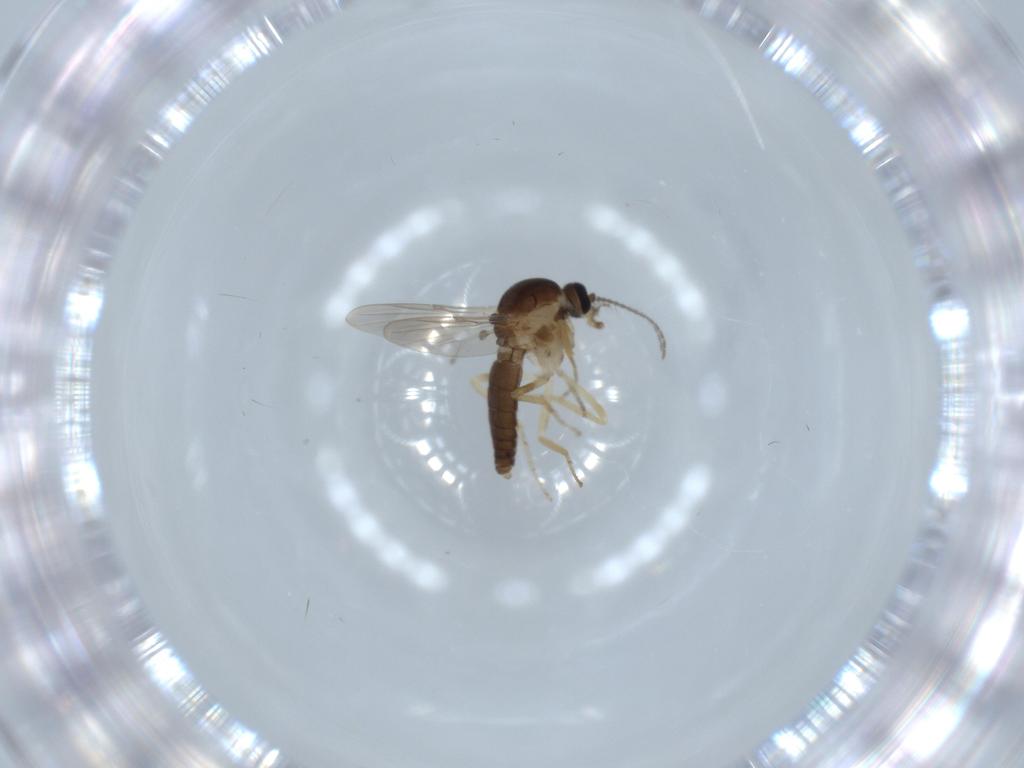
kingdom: Animalia
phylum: Arthropoda
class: Insecta
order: Diptera
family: Ceratopogonidae
